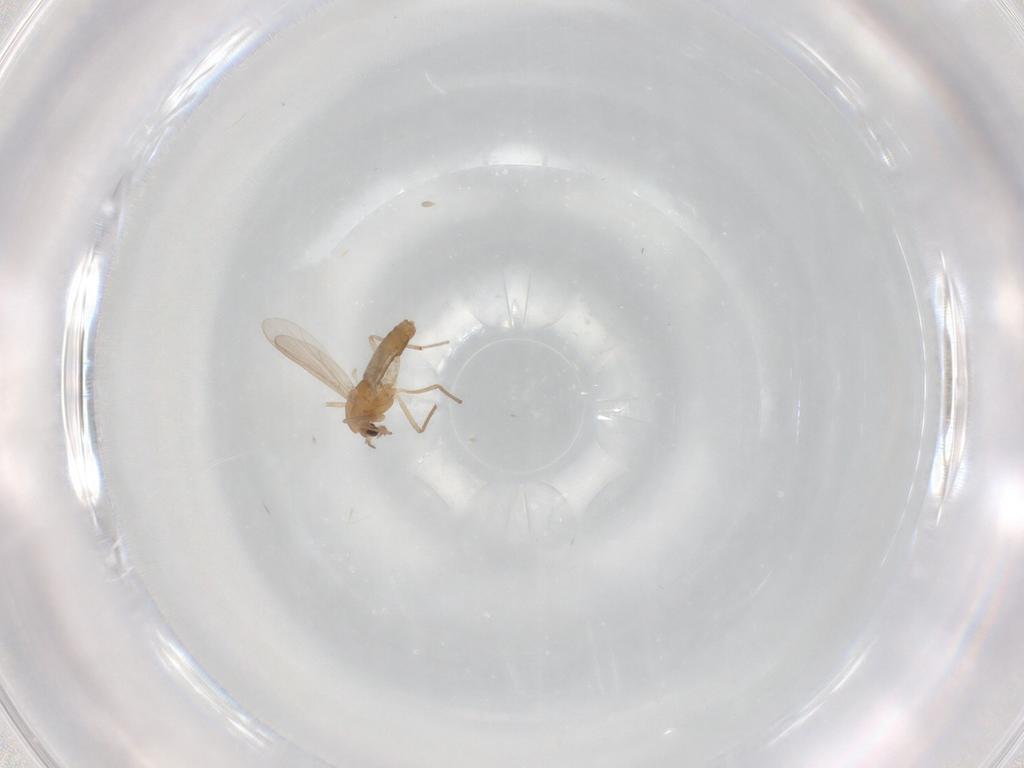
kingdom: Animalia
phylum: Arthropoda
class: Insecta
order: Diptera
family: Chironomidae
